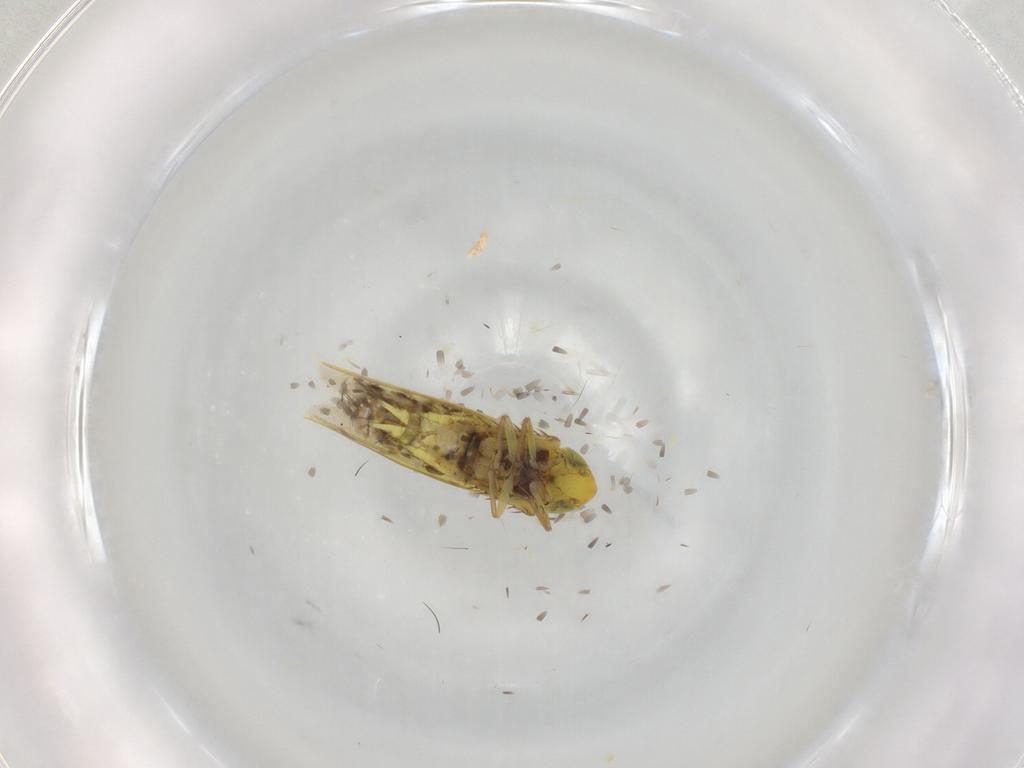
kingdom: Animalia
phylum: Arthropoda
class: Insecta
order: Hemiptera
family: Cicadellidae
